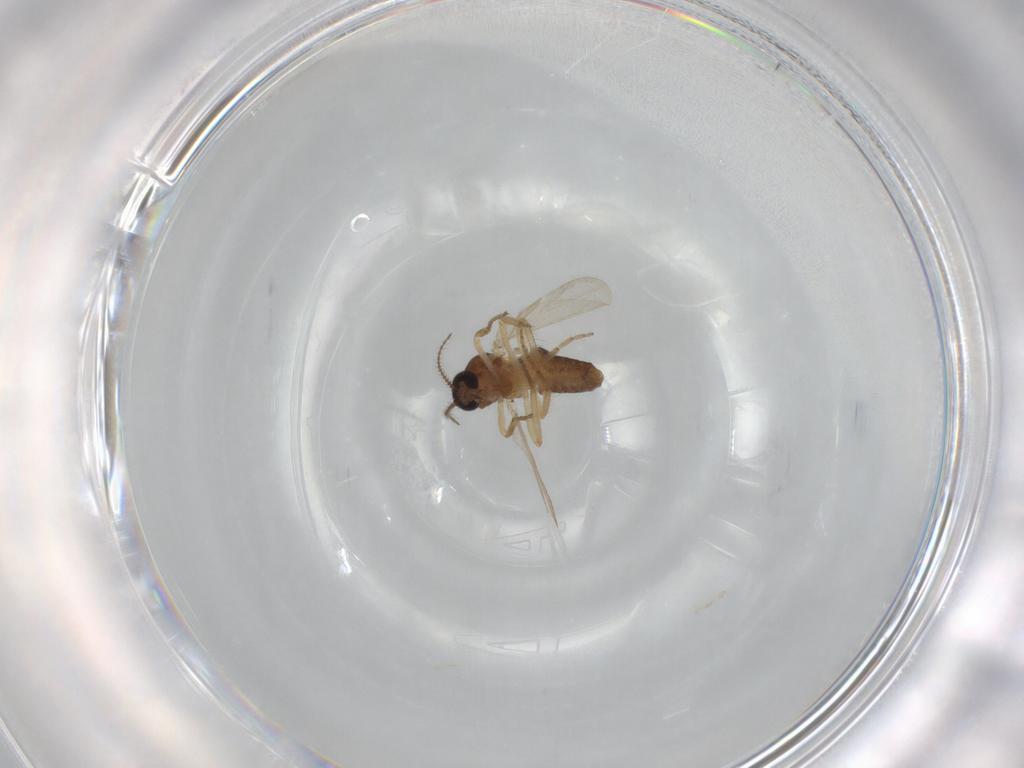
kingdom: Animalia
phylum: Arthropoda
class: Insecta
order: Diptera
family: Ceratopogonidae
